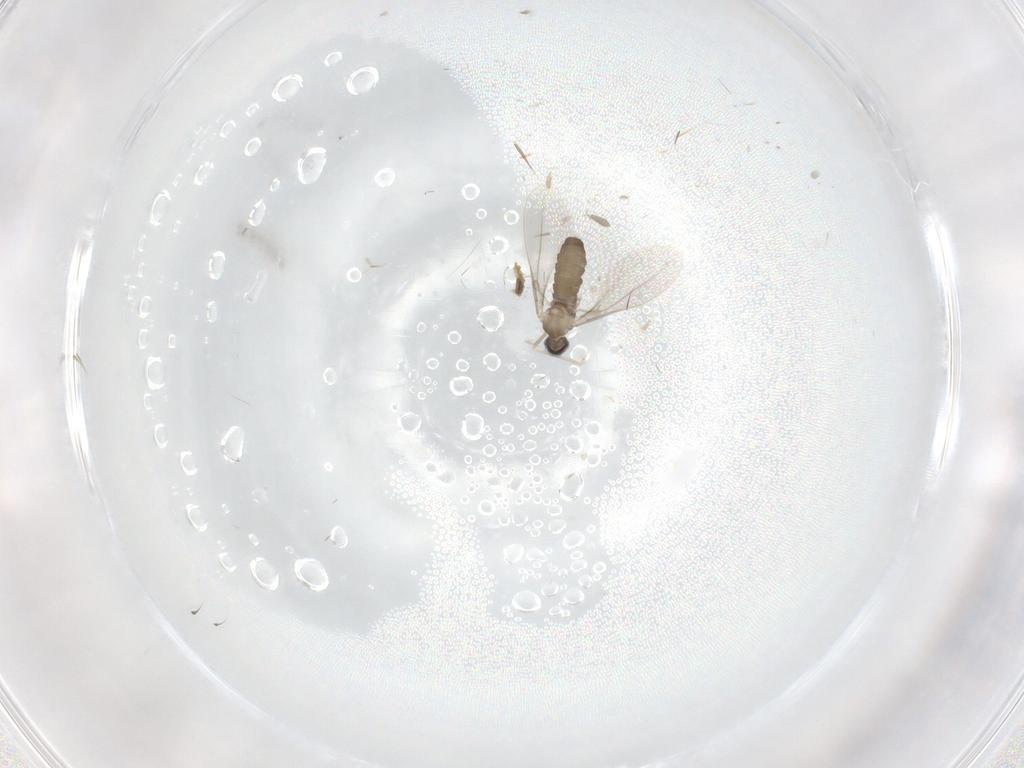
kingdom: Animalia
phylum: Arthropoda
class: Insecta
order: Diptera
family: Cecidomyiidae
